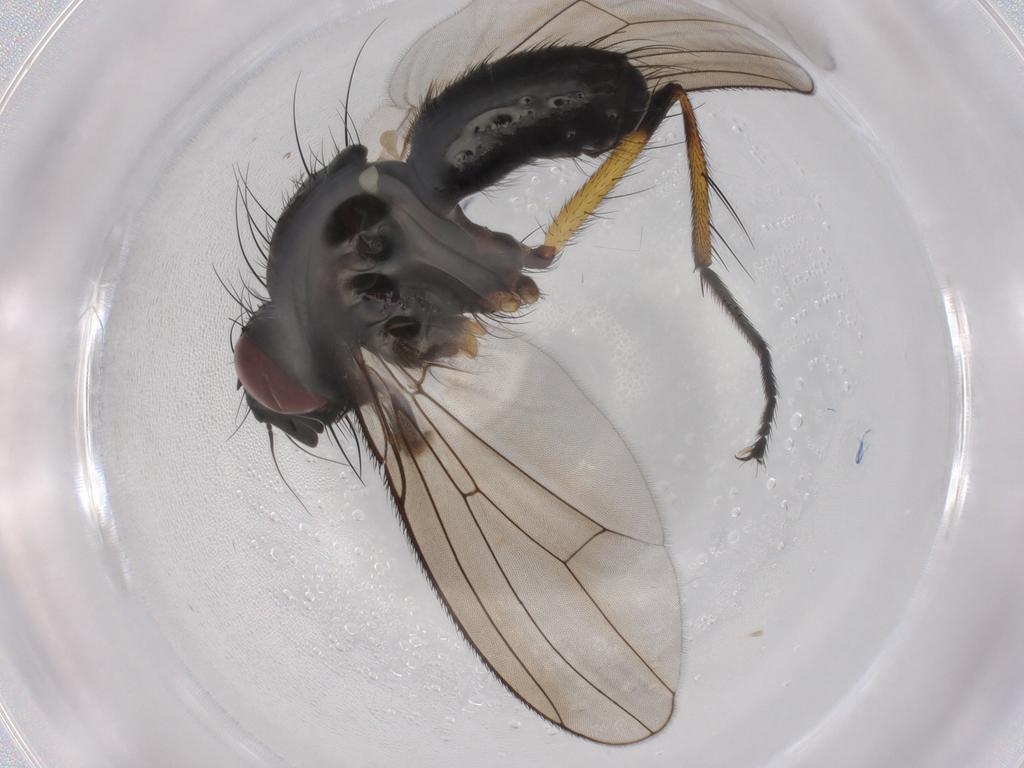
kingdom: Animalia
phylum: Arthropoda
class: Insecta
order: Diptera
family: Muscidae
